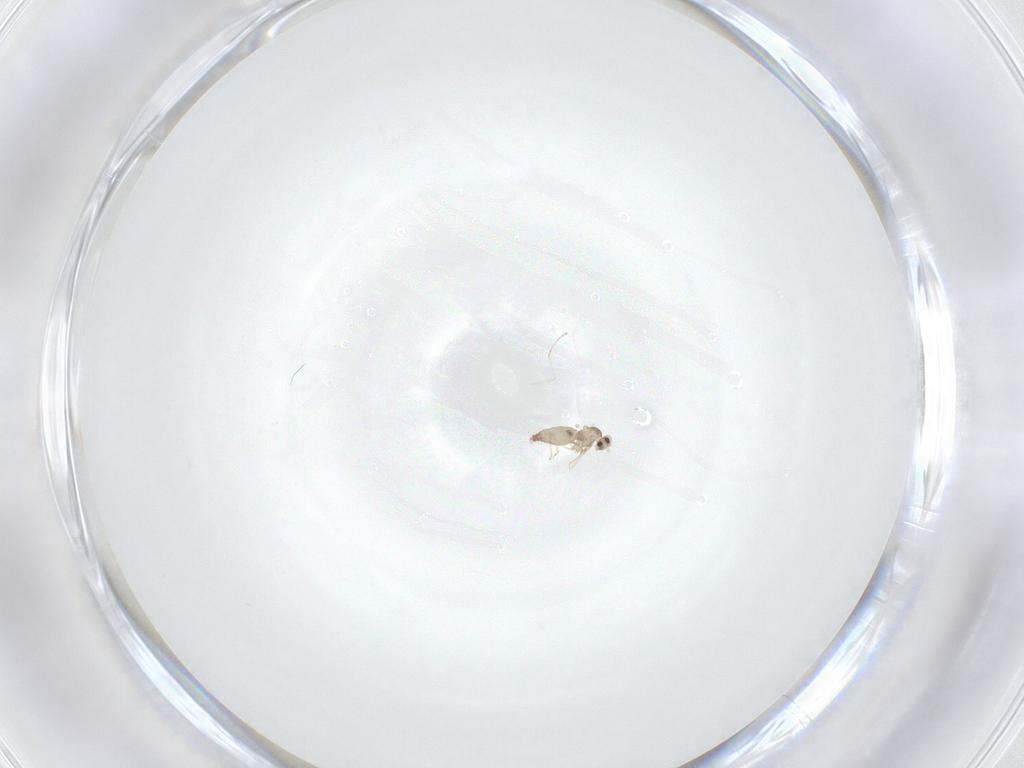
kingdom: Animalia
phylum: Arthropoda
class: Insecta
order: Diptera
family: Cecidomyiidae
